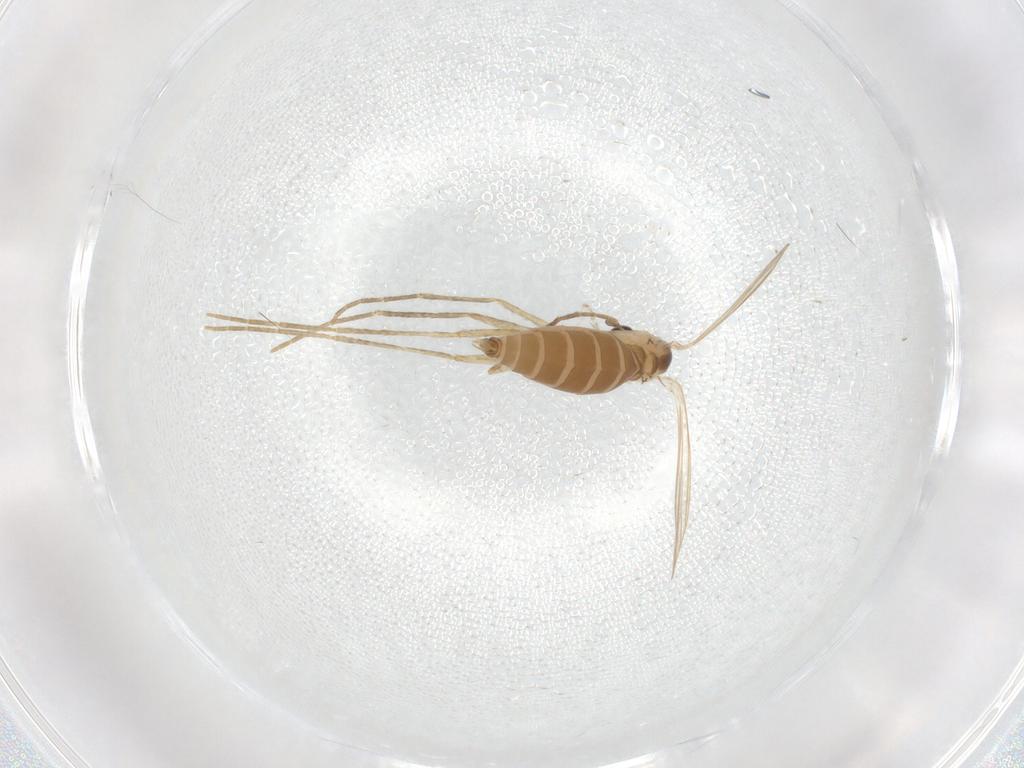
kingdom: Animalia
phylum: Arthropoda
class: Insecta
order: Diptera
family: Psychodidae
